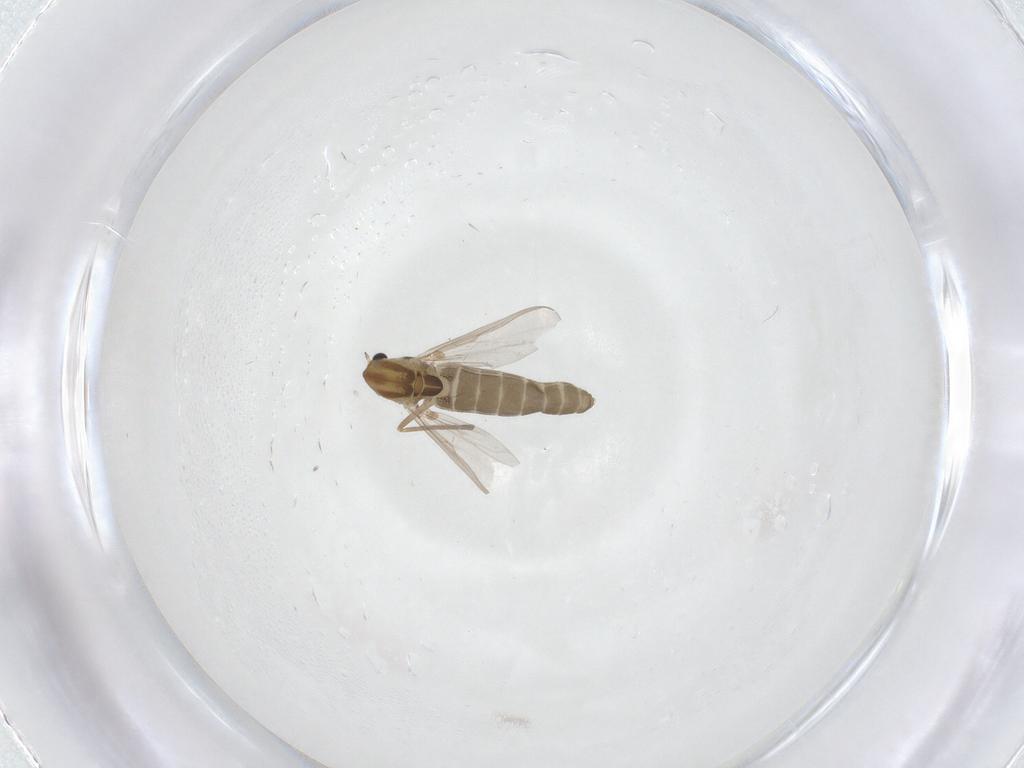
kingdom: Animalia
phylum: Arthropoda
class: Insecta
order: Diptera
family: Chironomidae
